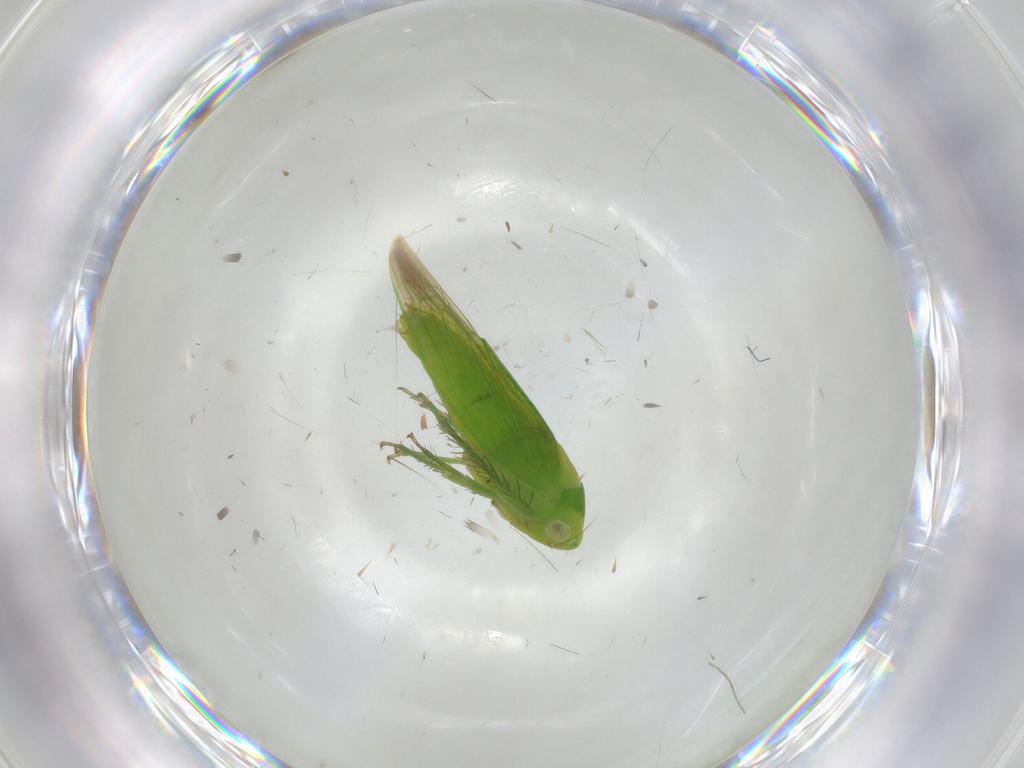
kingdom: Animalia
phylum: Arthropoda
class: Insecta
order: Hemiptera
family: Cicadellidae
